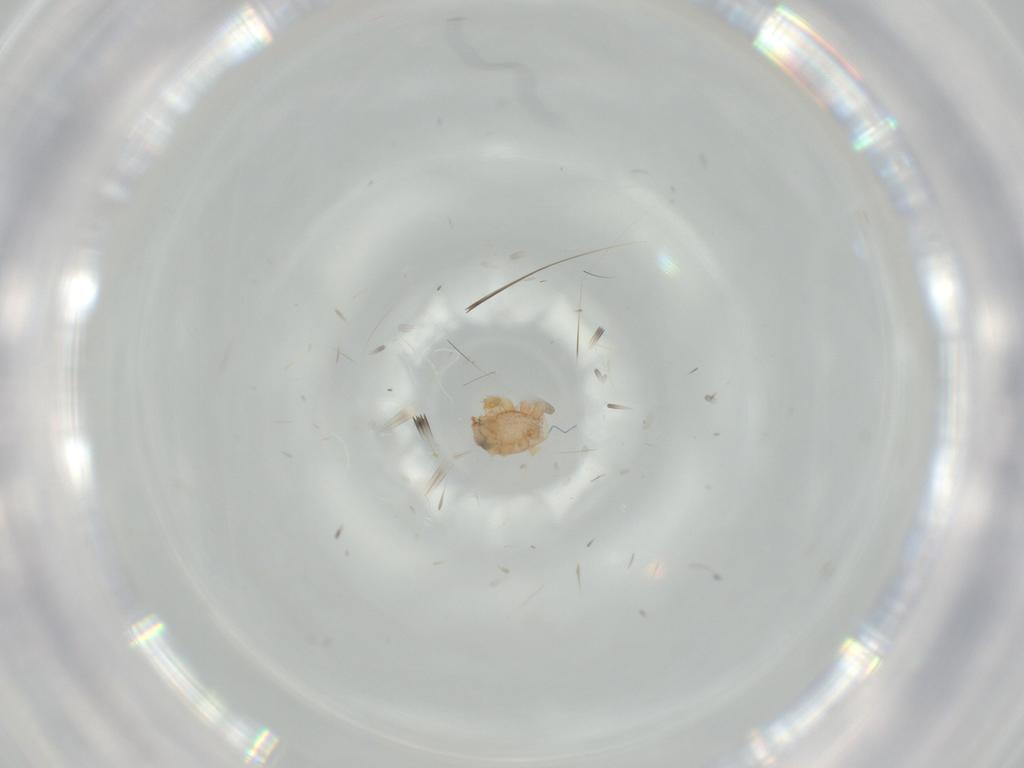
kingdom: Animalia
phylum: Arthropoda
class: Insecta
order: Lepidoptera
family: Oecophoridae
